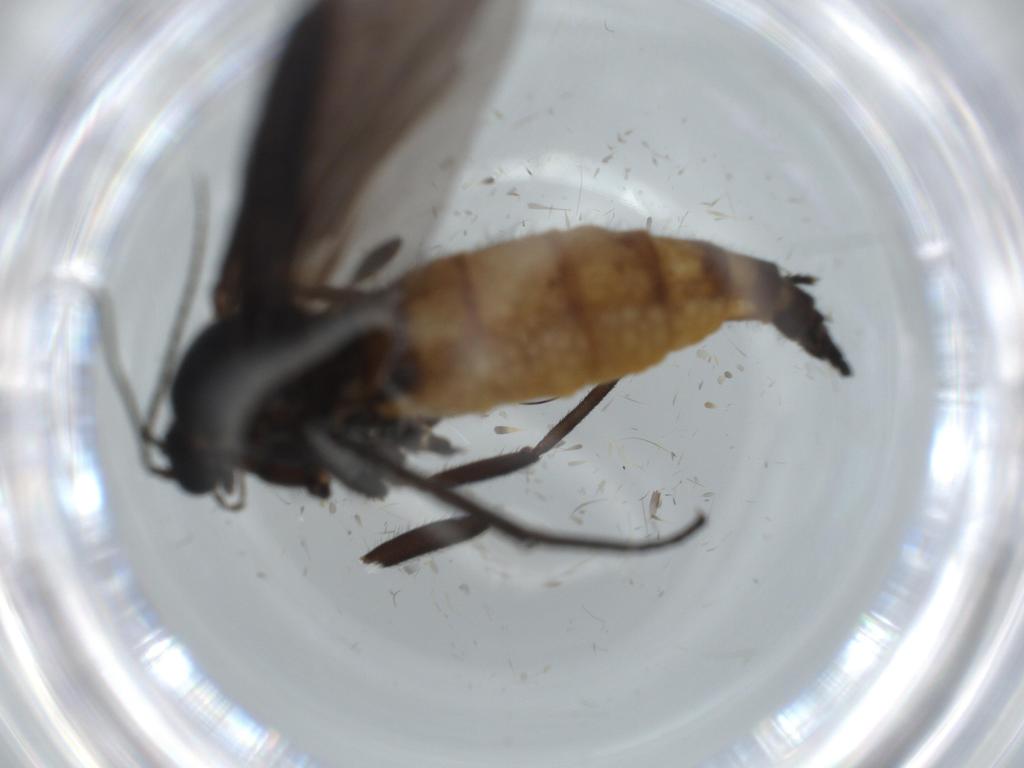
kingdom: Animalia
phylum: Arthropoda
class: Insecta
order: Diptera
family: Cecidomyiidae
